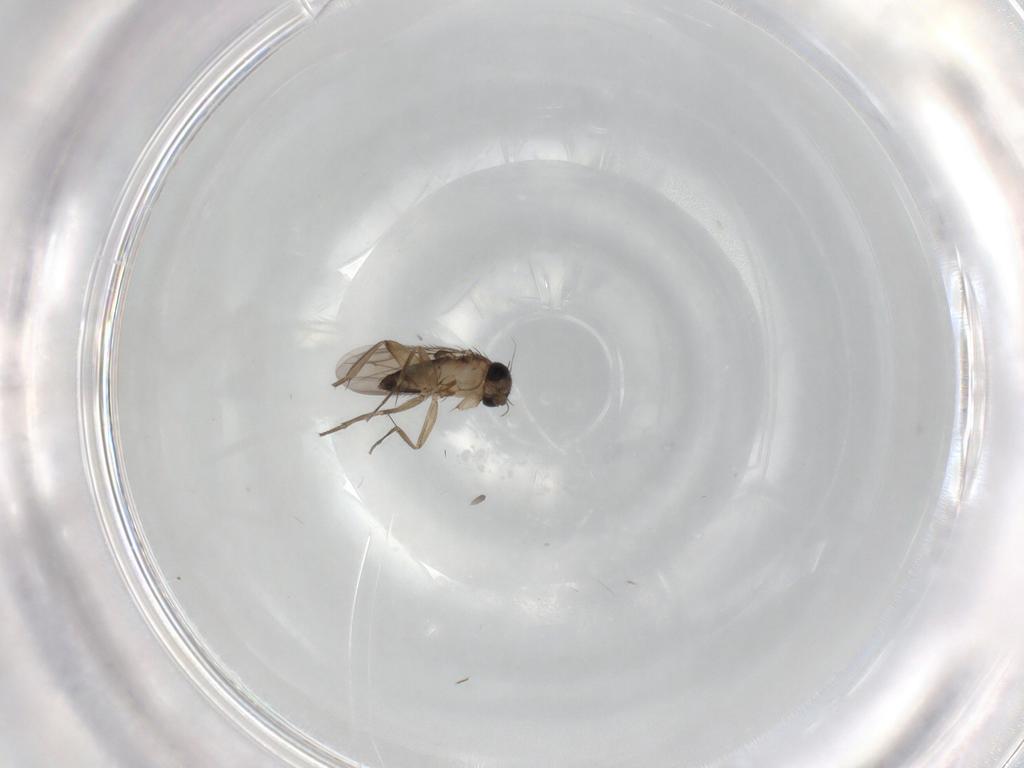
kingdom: Animalia
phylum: Arthropoda
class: Insecta
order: Diptera
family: Phoridae
